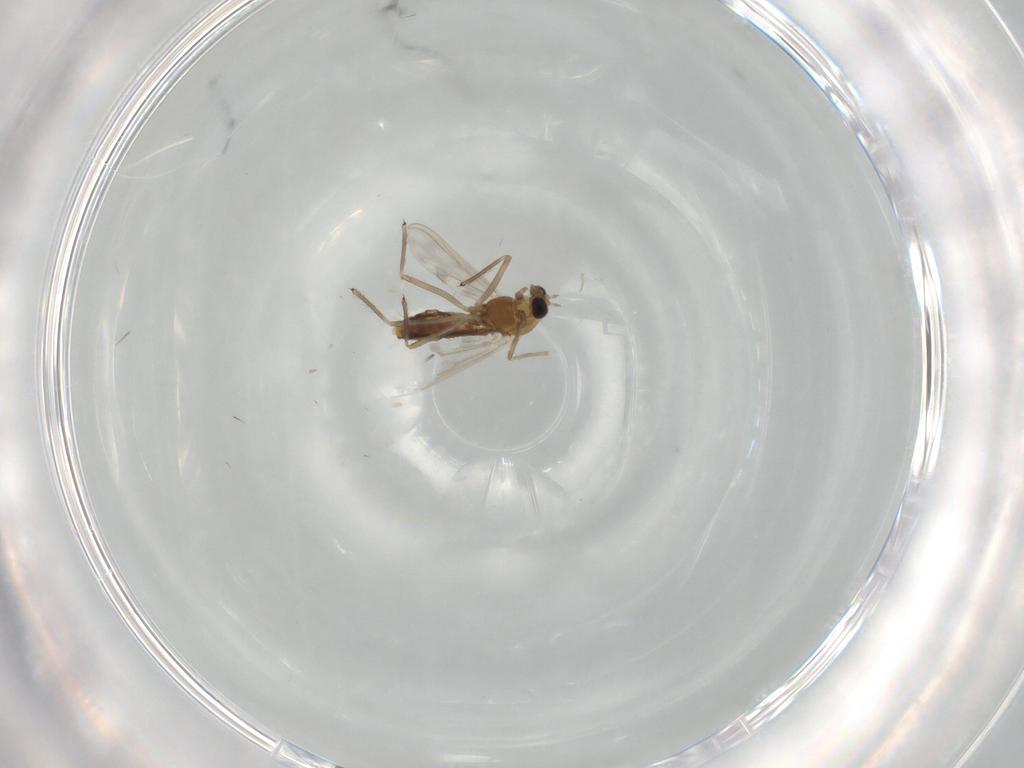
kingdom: Animalia
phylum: Arthropoda
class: Insecta
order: Diptera
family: Chironomidae
